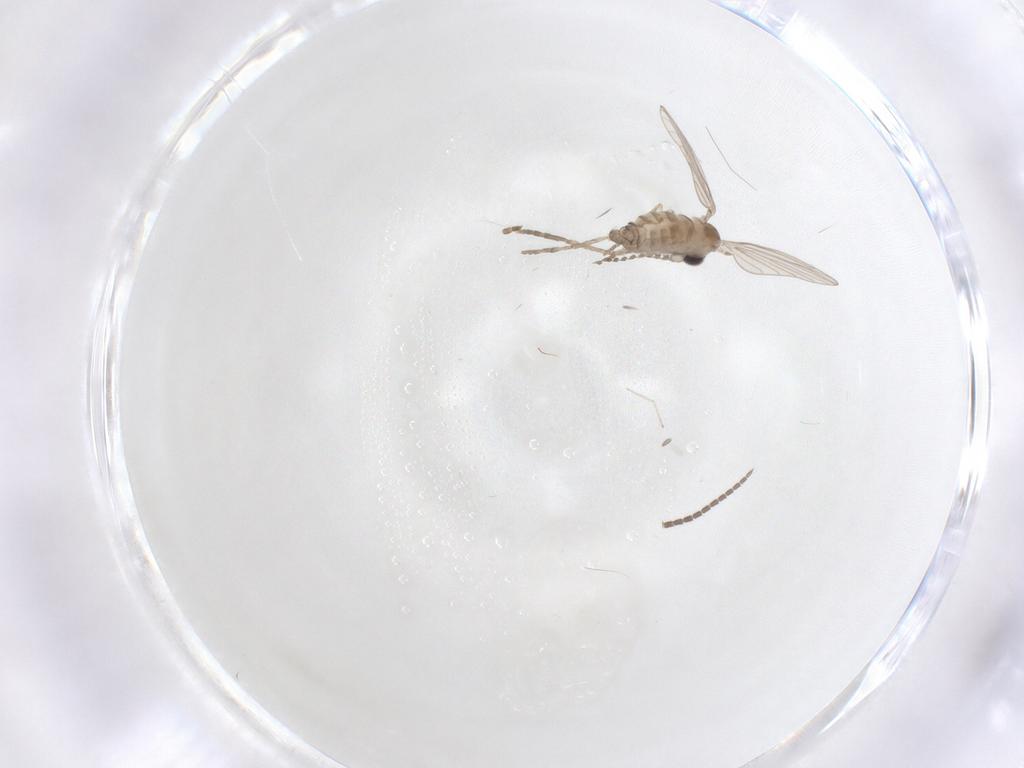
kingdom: Animalia
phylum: Arthropoda
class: Insecta
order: Diptera
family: Sciaridae
